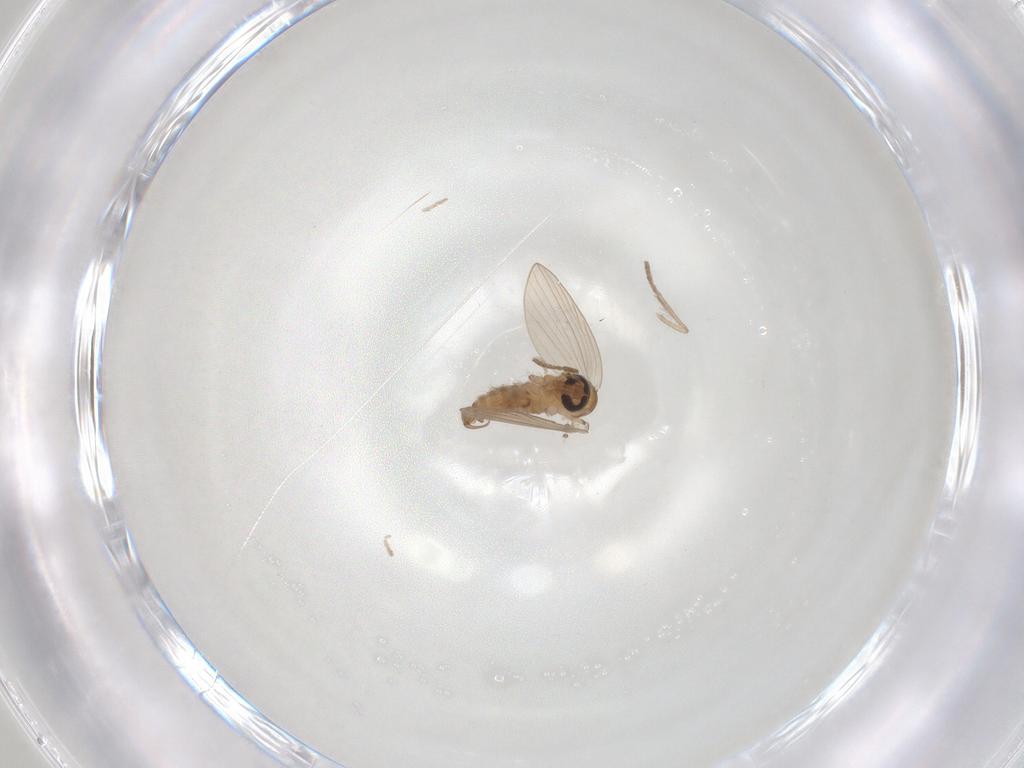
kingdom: Animalia
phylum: Arthropoda
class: Insecta
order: Diptera
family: Psychodidae
